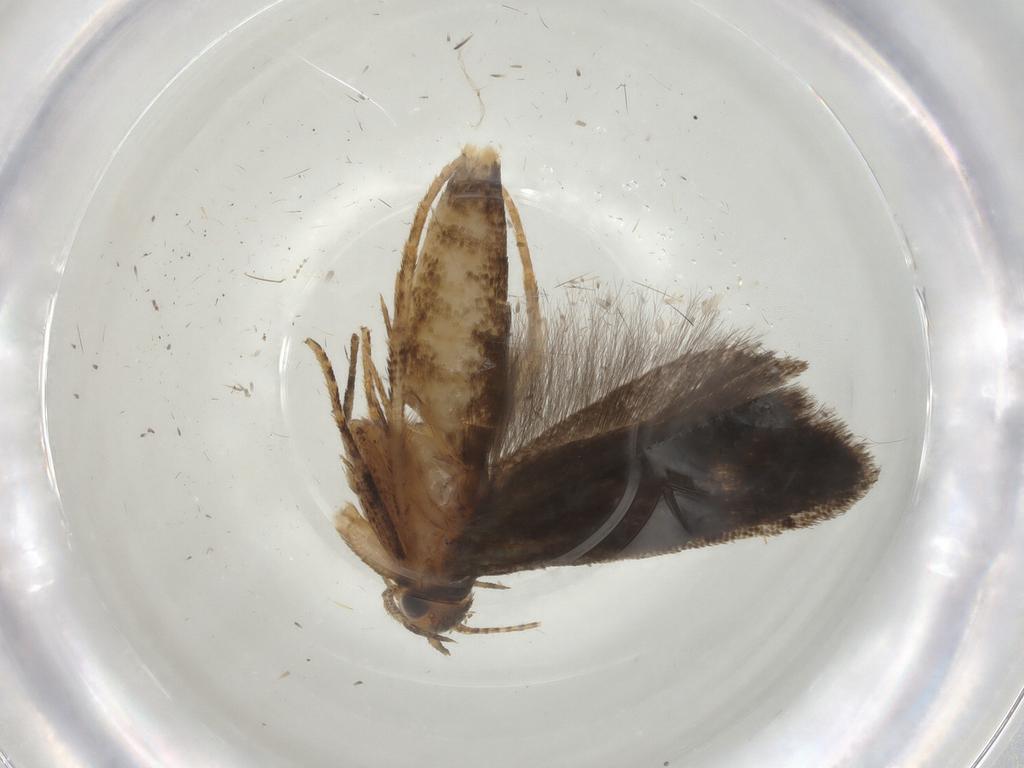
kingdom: Animalia
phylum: Arthropoda
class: Insecta
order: Lepidoptera
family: Gelechiidae
